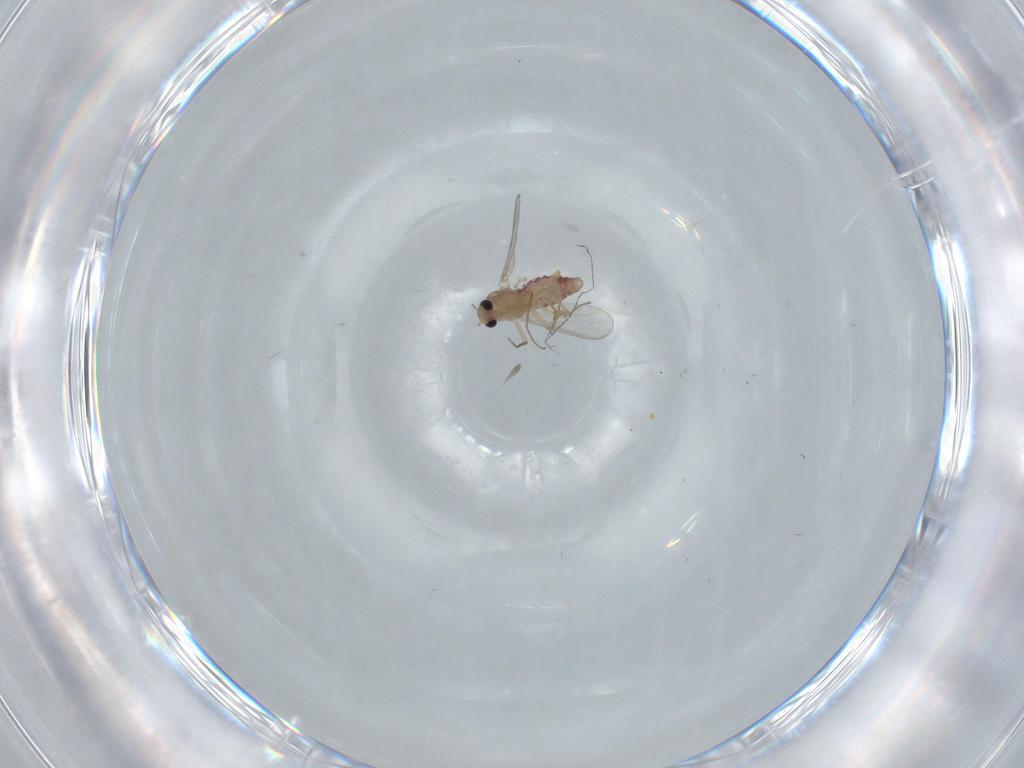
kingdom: Animalia
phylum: Arthropoda
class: Insecta
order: Diptera
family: Chironomidae
